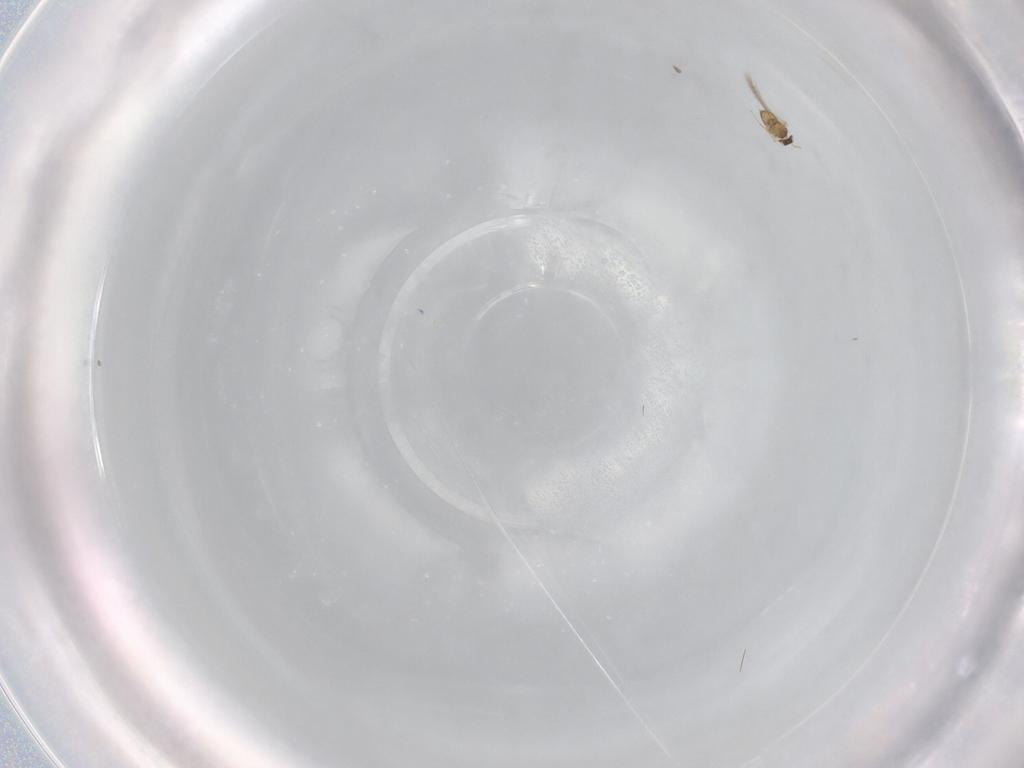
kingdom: Animalia
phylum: Arthropoda
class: Insecta
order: Hymenoptera
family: Mymaridae
